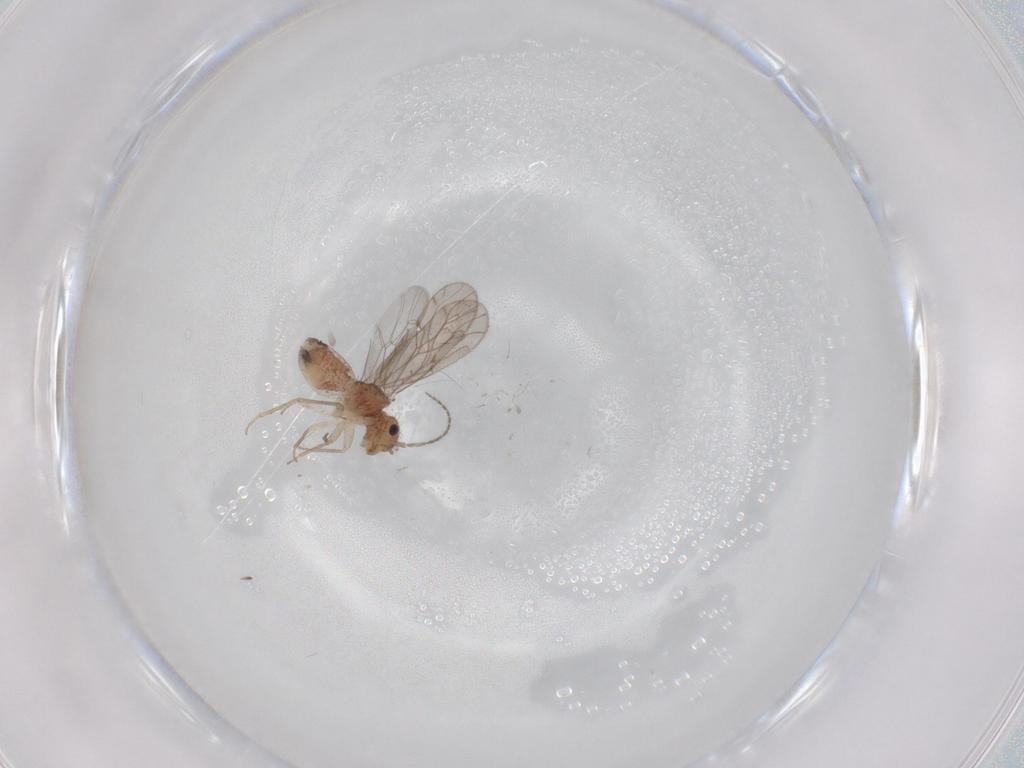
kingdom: Animalia
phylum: Arthropoda
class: Insecta
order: Psocodea
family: Ectopsocidae
